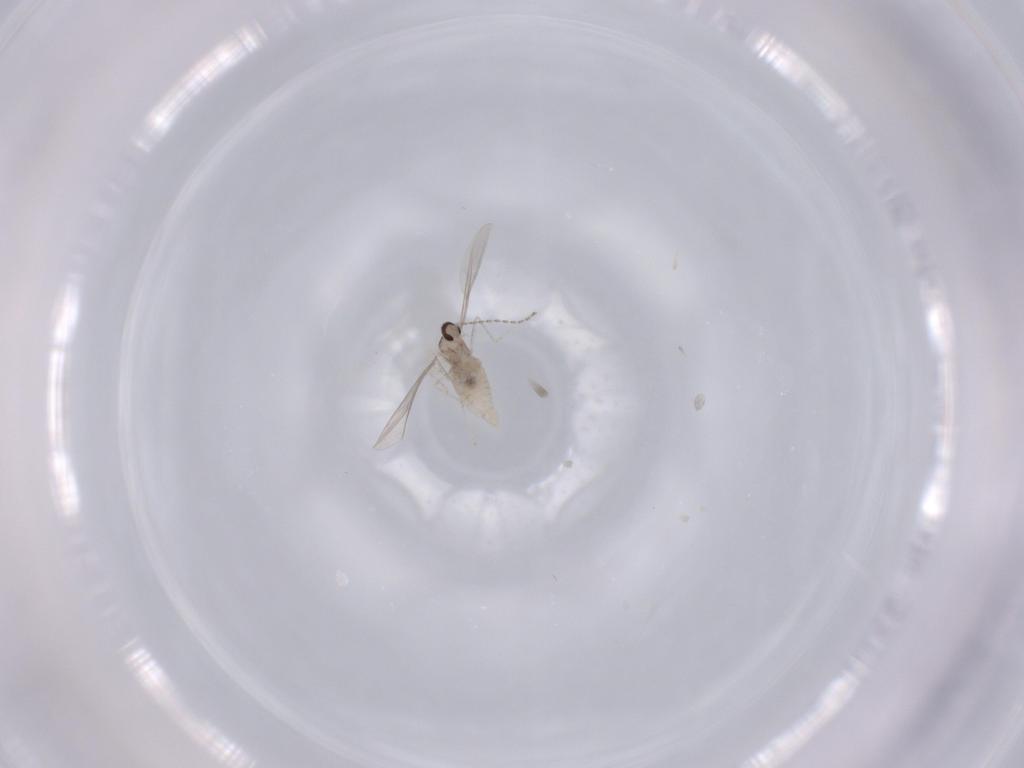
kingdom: Animalia
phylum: Arthropoda
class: Insecta
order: Diptera
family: Cecidomyiidae
